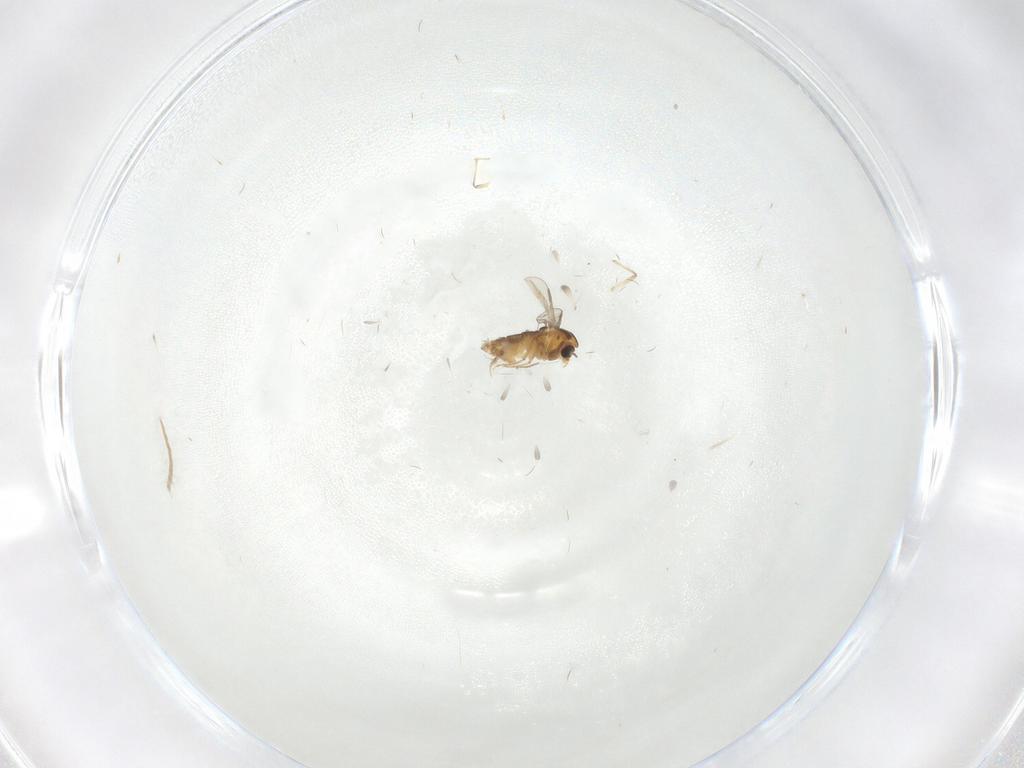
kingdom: Animalia
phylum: Arthropoda
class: Insecta
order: Diptera
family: Chironomidae
